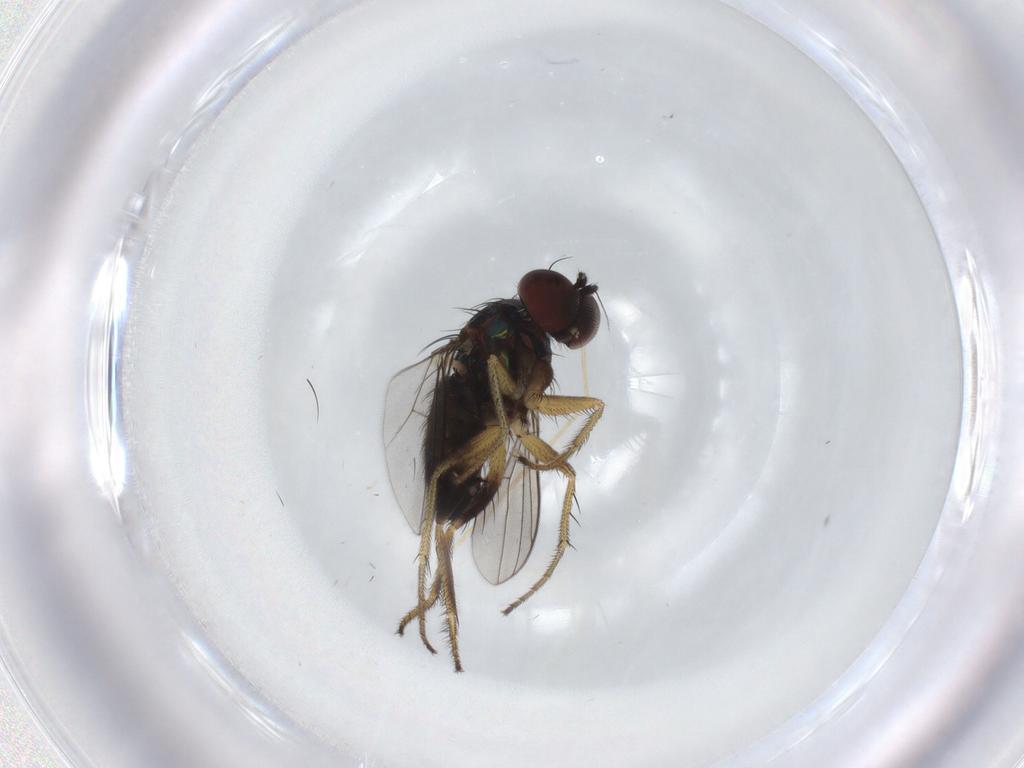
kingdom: Animalia
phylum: Arthropoda
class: Insecta
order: Diptera
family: Dolichopodidae
